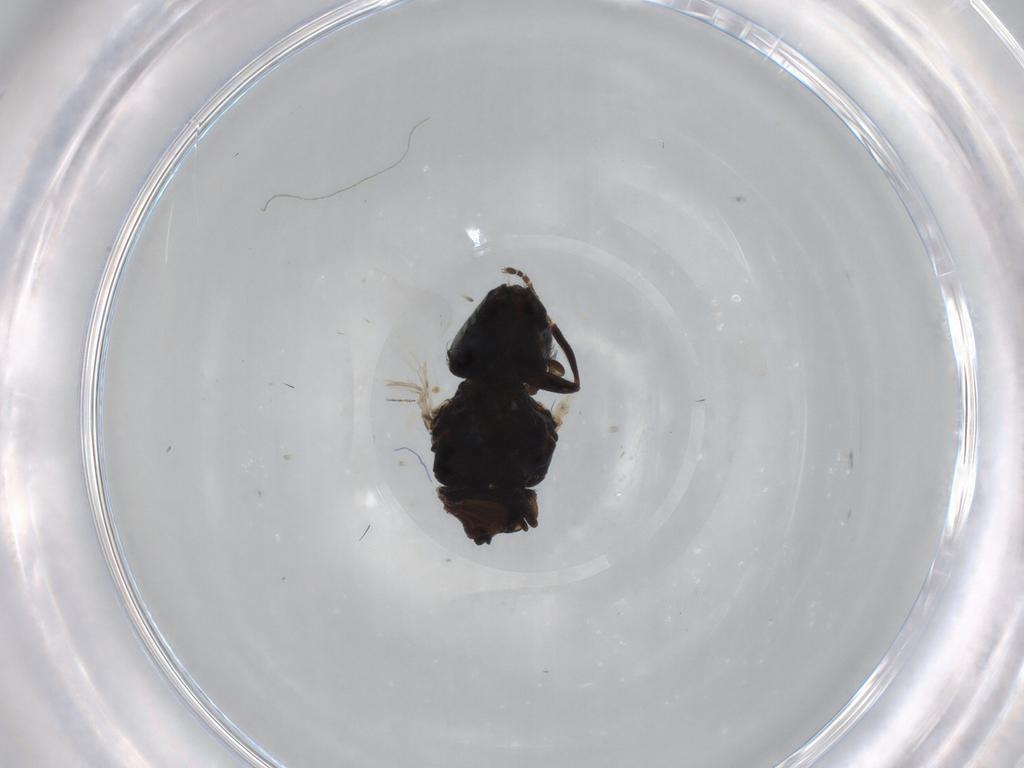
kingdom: Animalia
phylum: Arthropoda
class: Insecta
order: Diptera
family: Milichiidae
